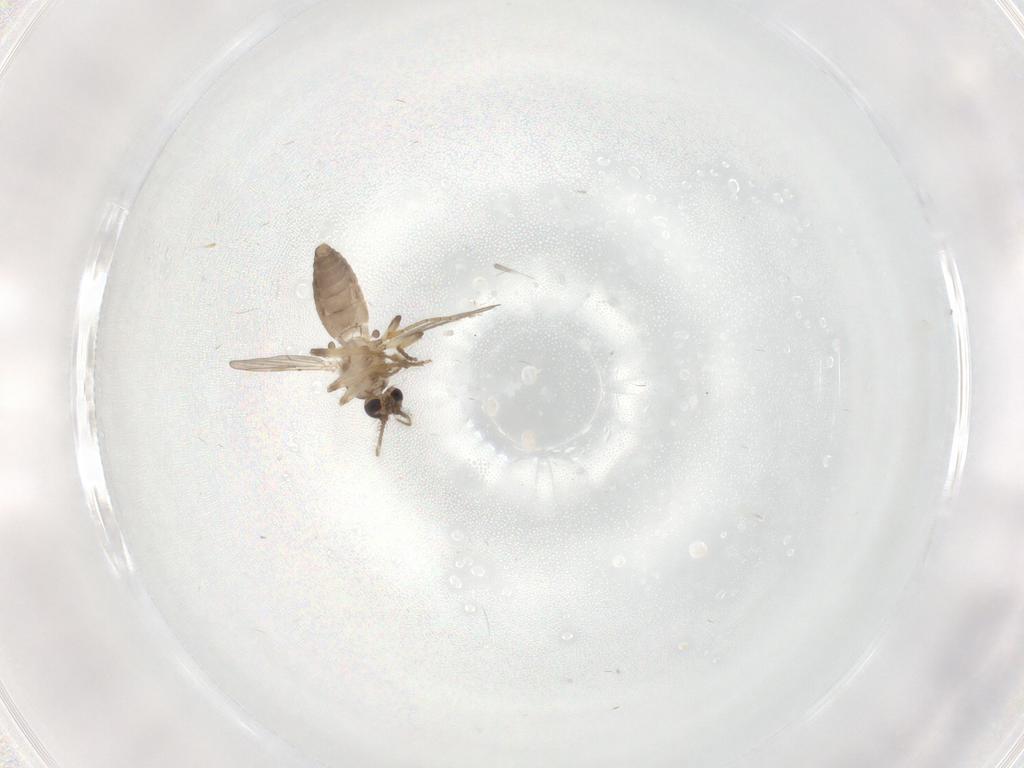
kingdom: Animalia
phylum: Arthropoda
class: Insecta
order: Diptera
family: Ceratopogonidae
